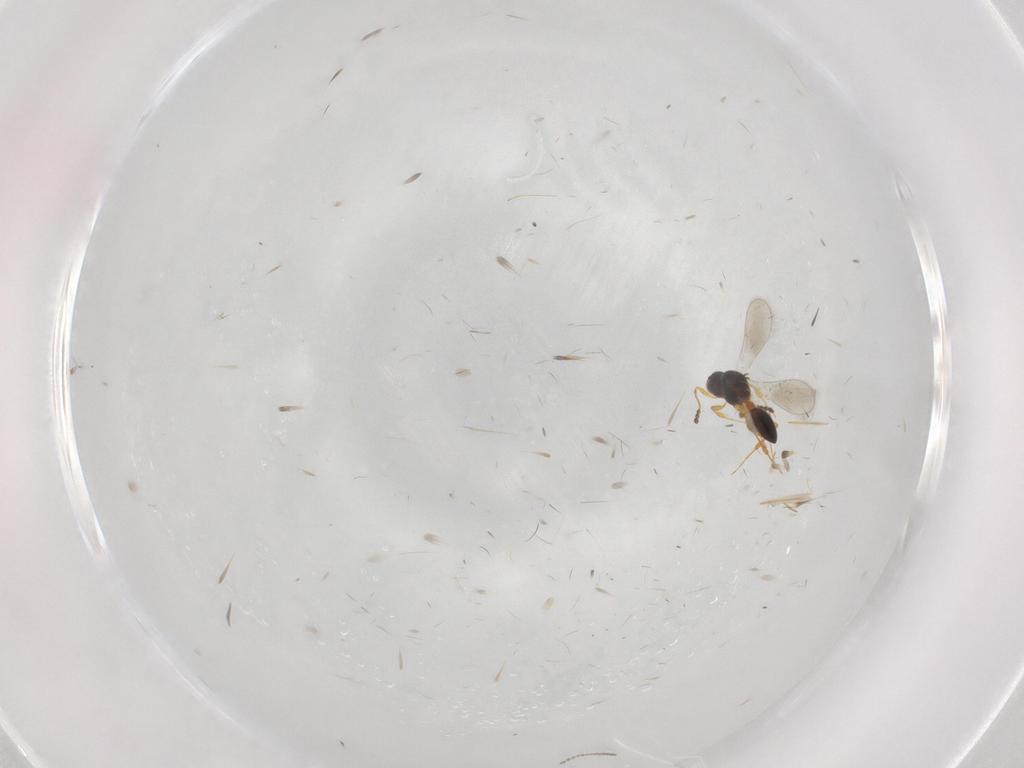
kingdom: Animalia
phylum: Arthropoda
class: Insecta
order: Hymenoptera
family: Platygastridae
